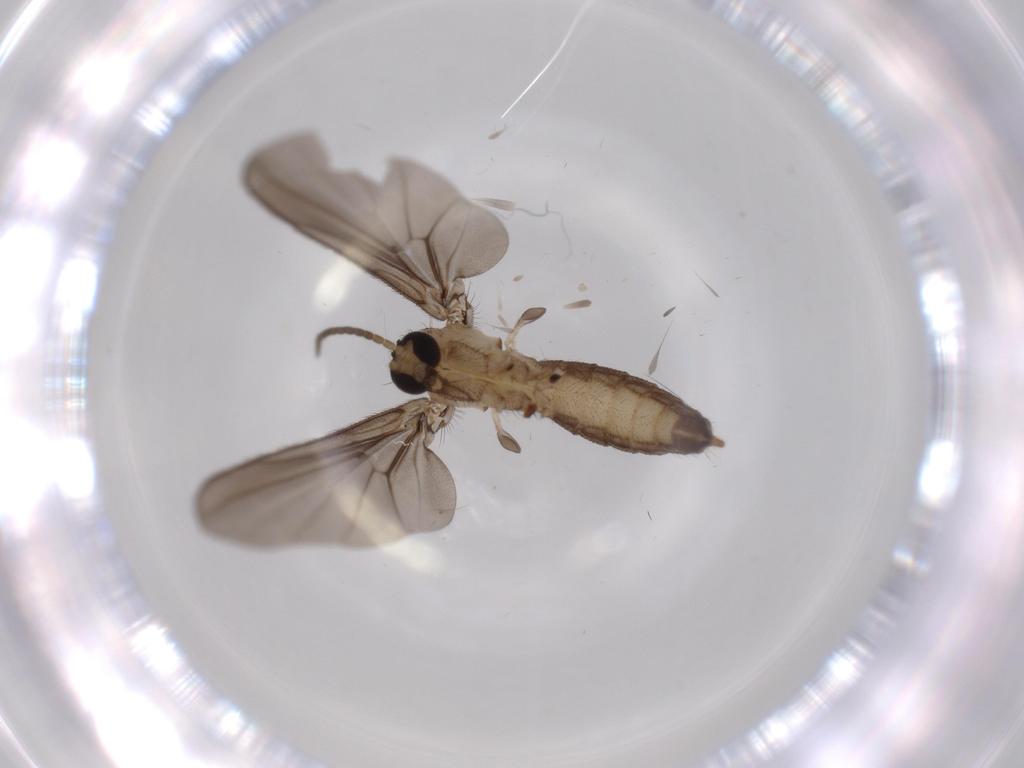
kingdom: Animalia
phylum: Arthropoda
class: Insecta
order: Diptera
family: Diadocidiidae
